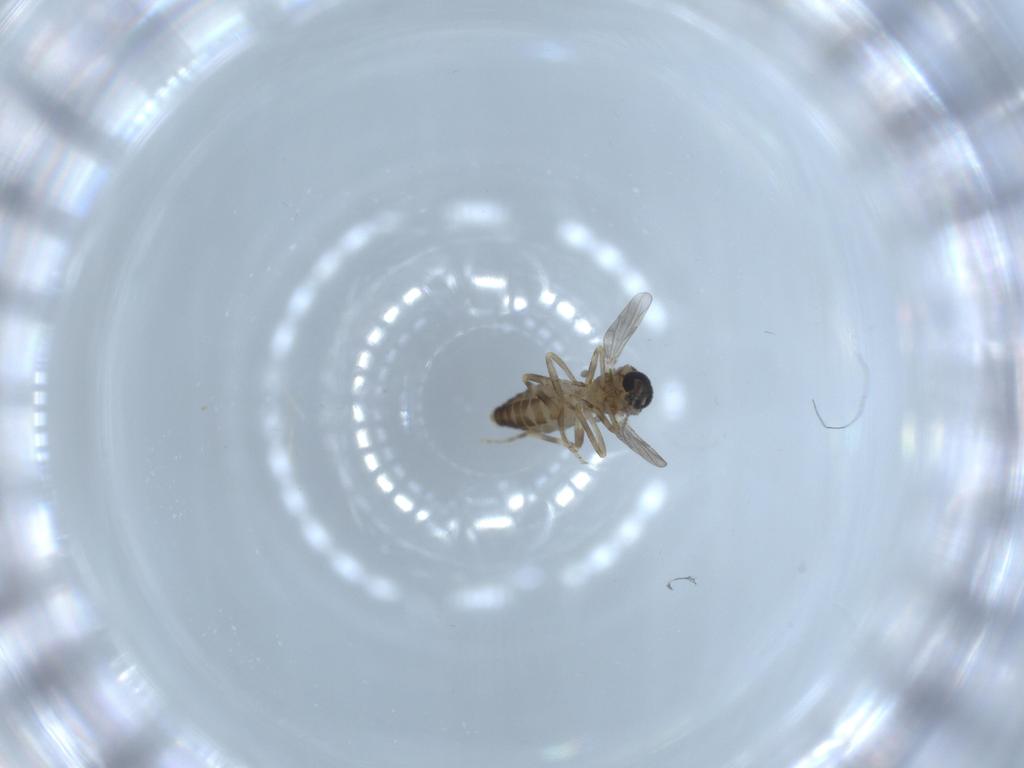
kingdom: Animalia
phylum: Arthropoda
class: Insecta
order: Diptera
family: Ceratopogonidae
